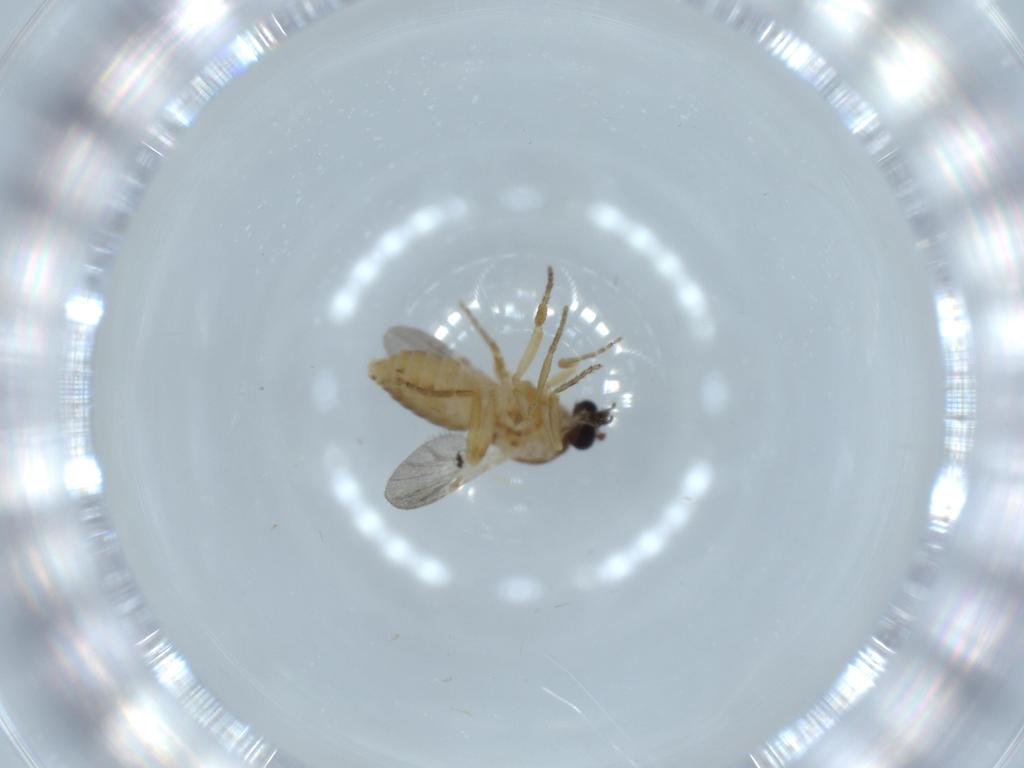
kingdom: Animalia
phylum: Arthropoda
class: Insecta
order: Diptera
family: Ceratopogonidae
